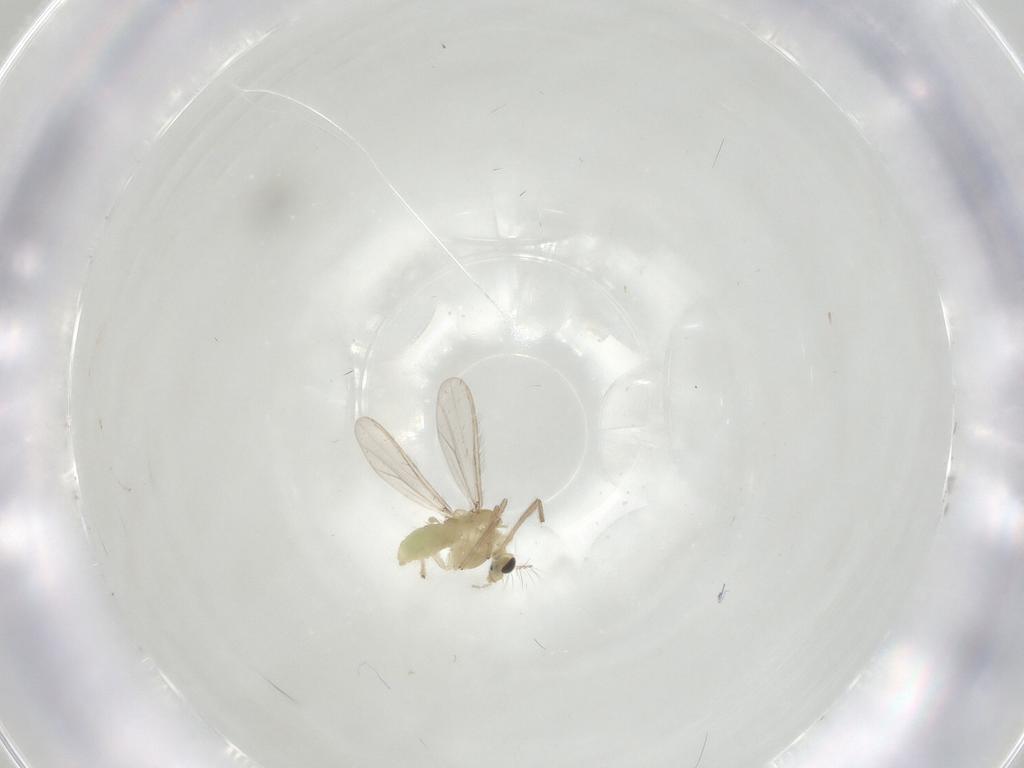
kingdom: Animalia
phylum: Arthropoda
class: Insecta
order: Diptera
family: Chironomidae
